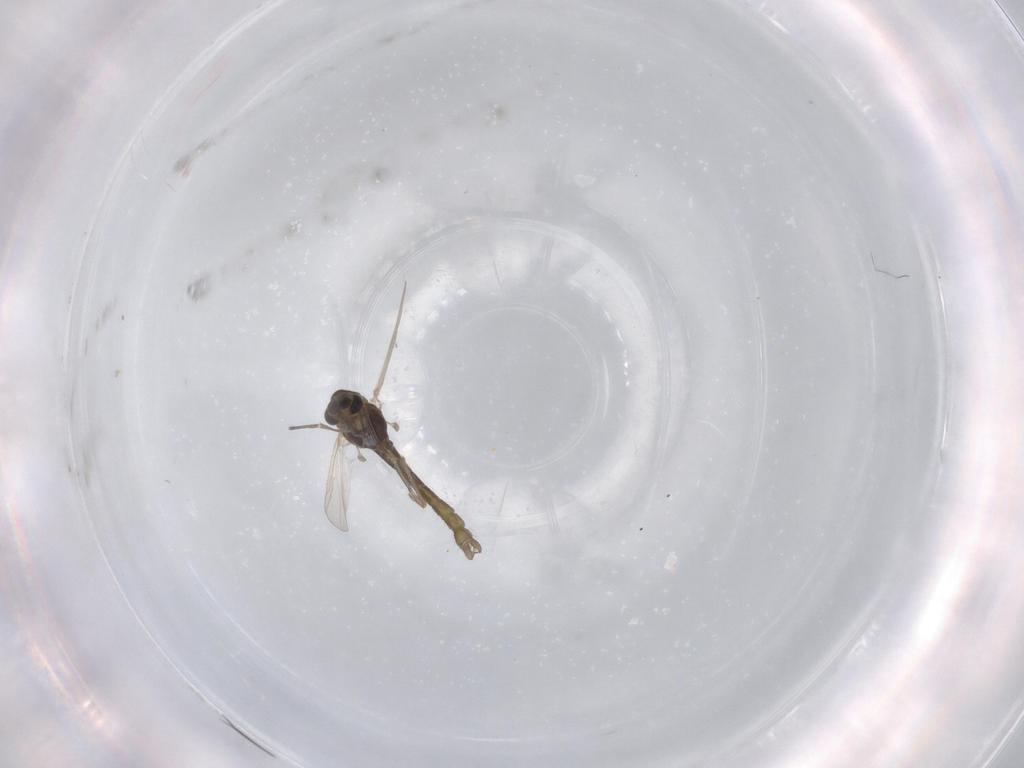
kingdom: Animalia
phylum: Arthropoda
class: Insecta
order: Diptera
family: Chironomidae
